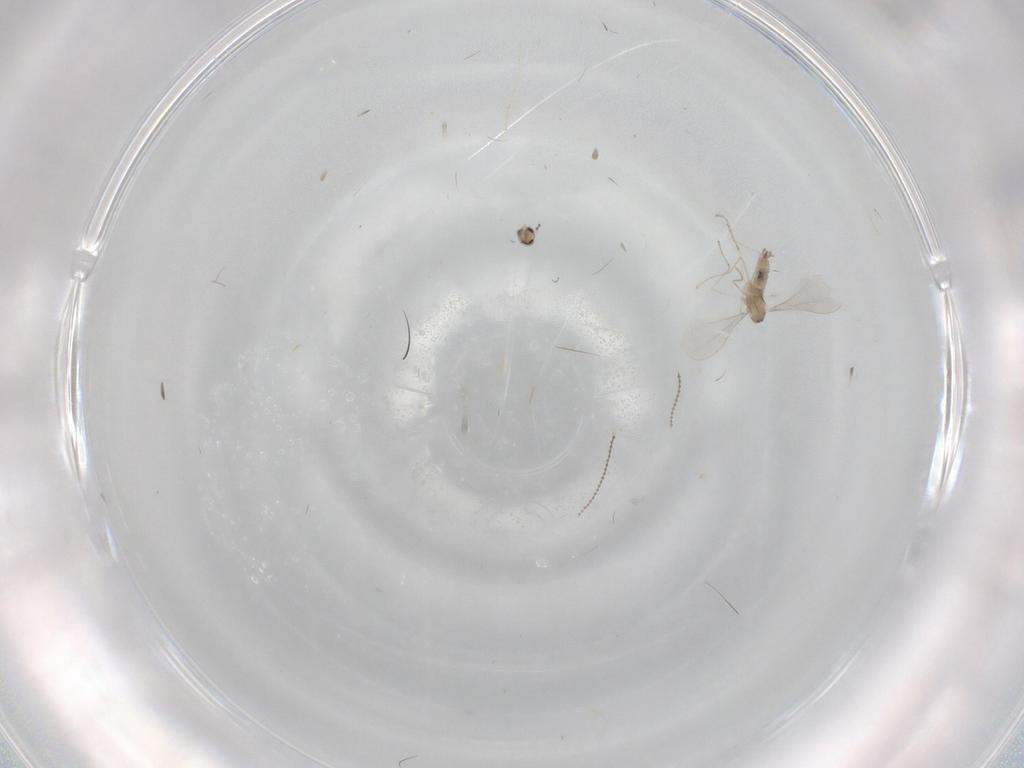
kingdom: Animalia
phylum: Arthropoda
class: Insecta
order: Diptera
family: Cecidomyiidae
